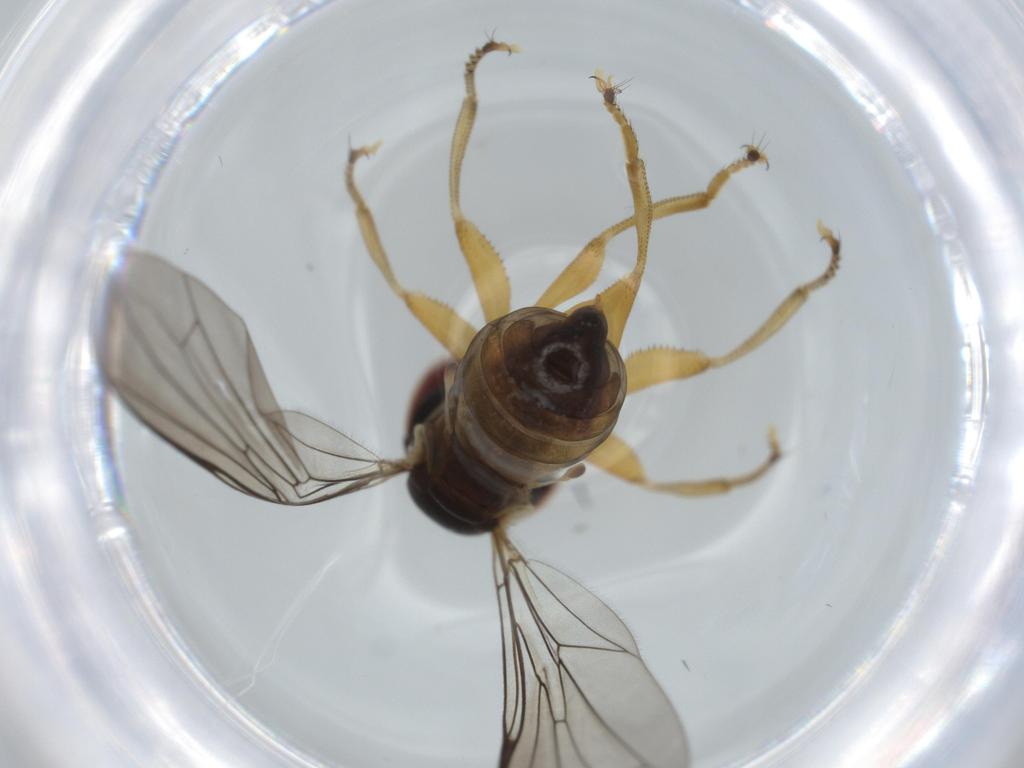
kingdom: Animalia
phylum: Arthropoda
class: Insecta
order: Diptera
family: Pipunculidae
